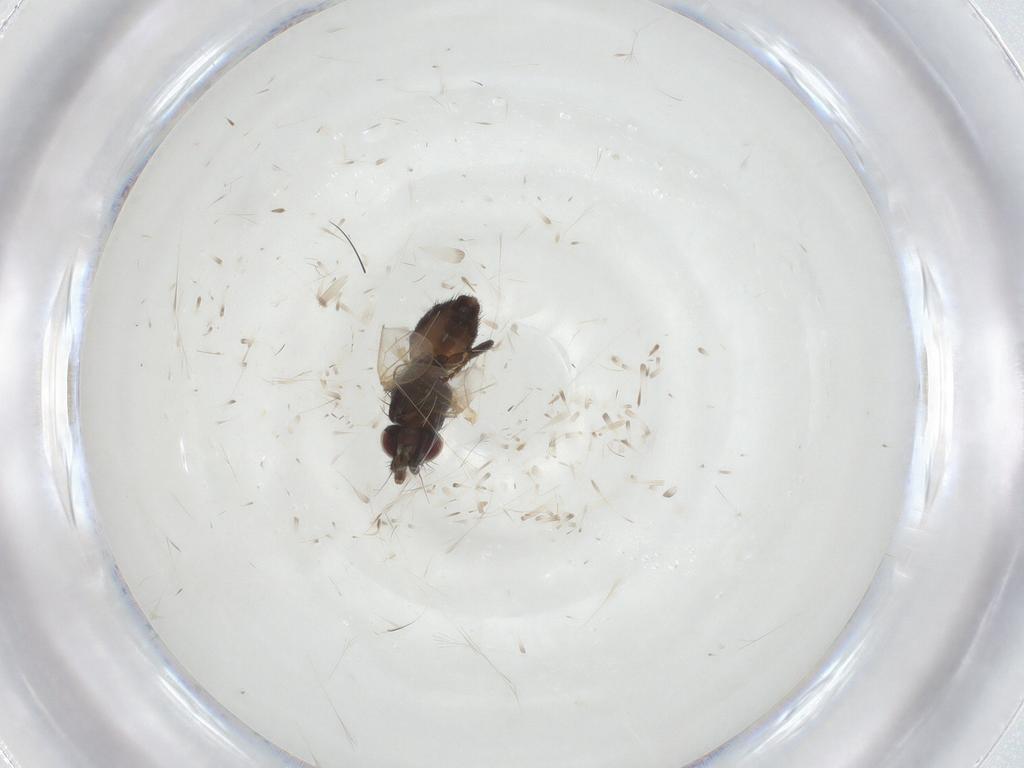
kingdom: Animalia
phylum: Arthropoda
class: Insecta
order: Diptera
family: Milichiidae
